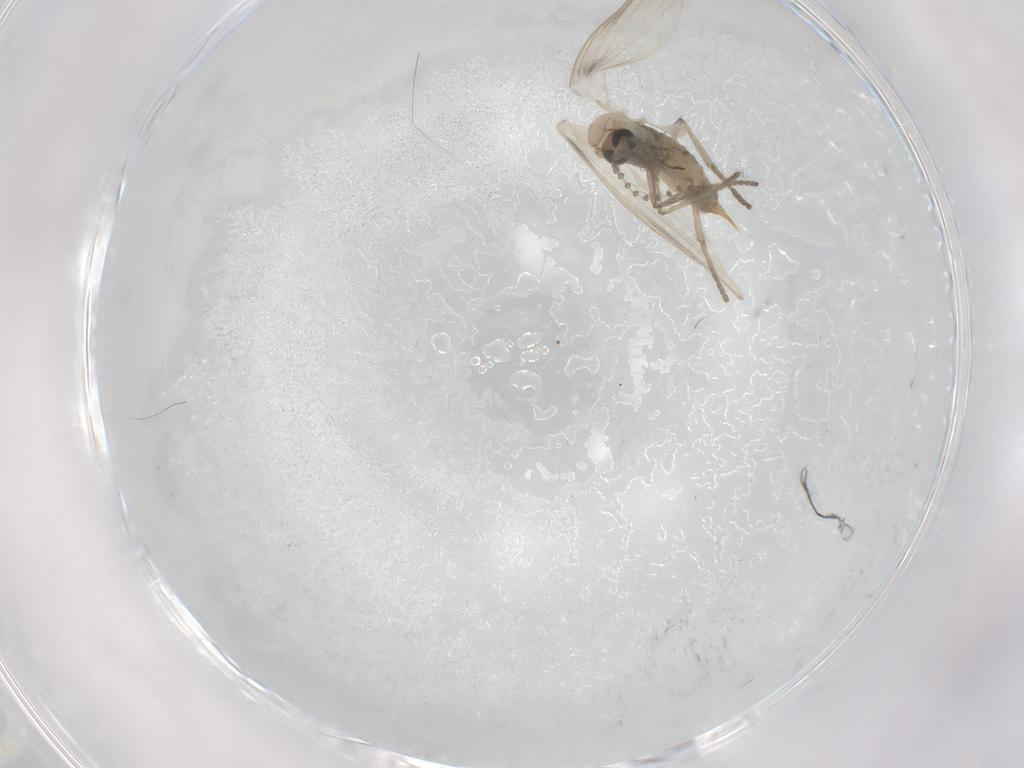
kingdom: Animalia
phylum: Arthropoda
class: Insecta
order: Diptera
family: Psychodidae
